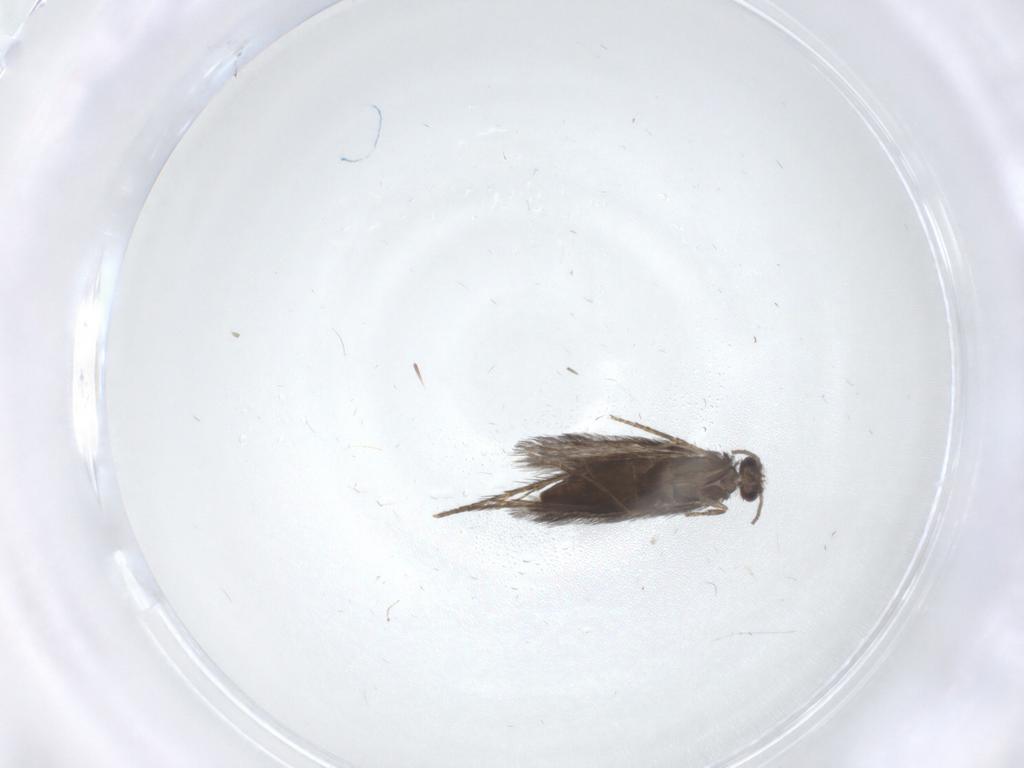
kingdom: Animalia
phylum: Arthropoda
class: Insecta
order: Trichoptera
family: Hydroptilidae
